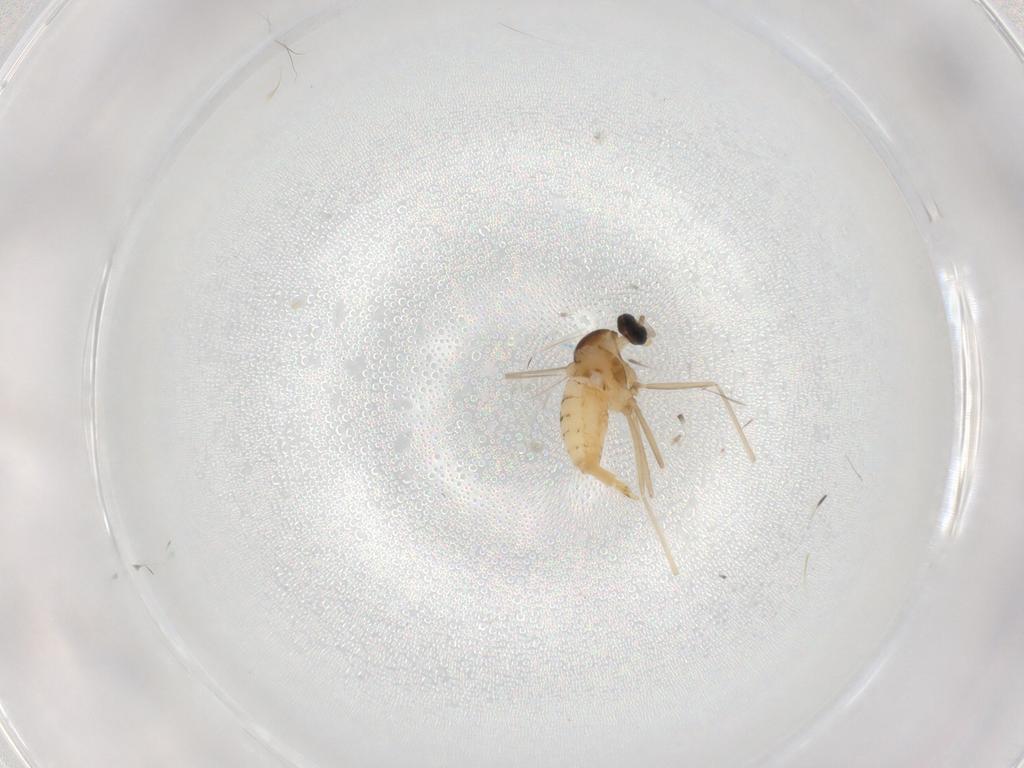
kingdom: Animalia
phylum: Arthropoda
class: Insecta
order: Diptera
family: Cecidomyiidae
